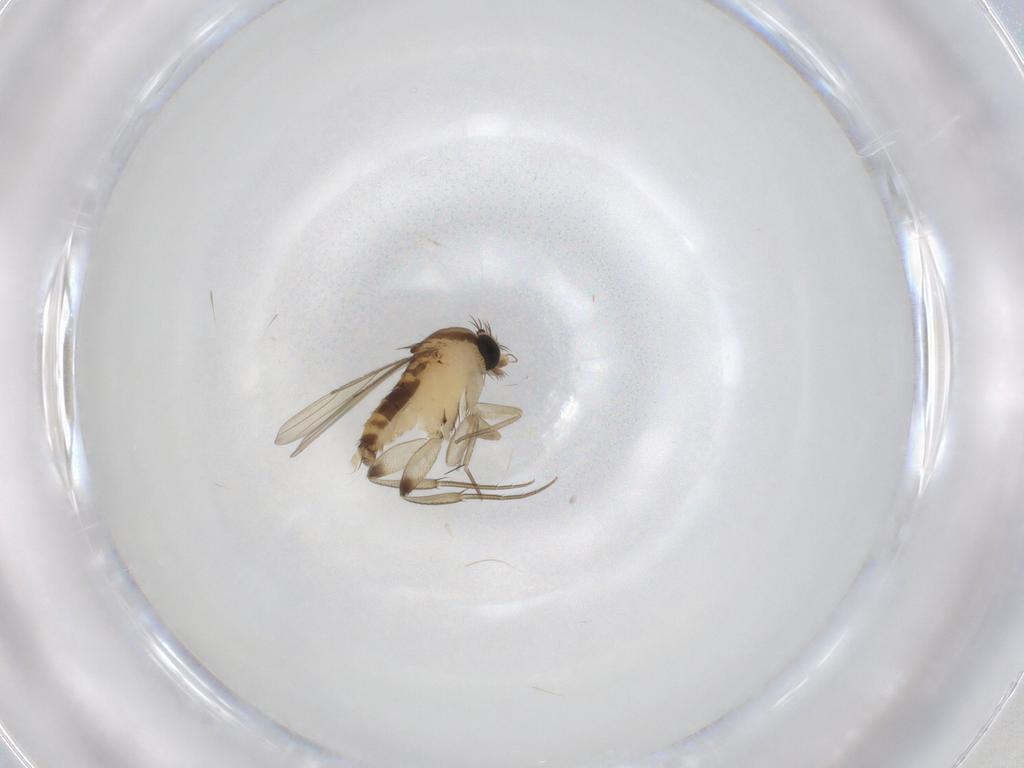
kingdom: Animalia
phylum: Arthropoda
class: Insecta
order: Diptera
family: Phoridae
